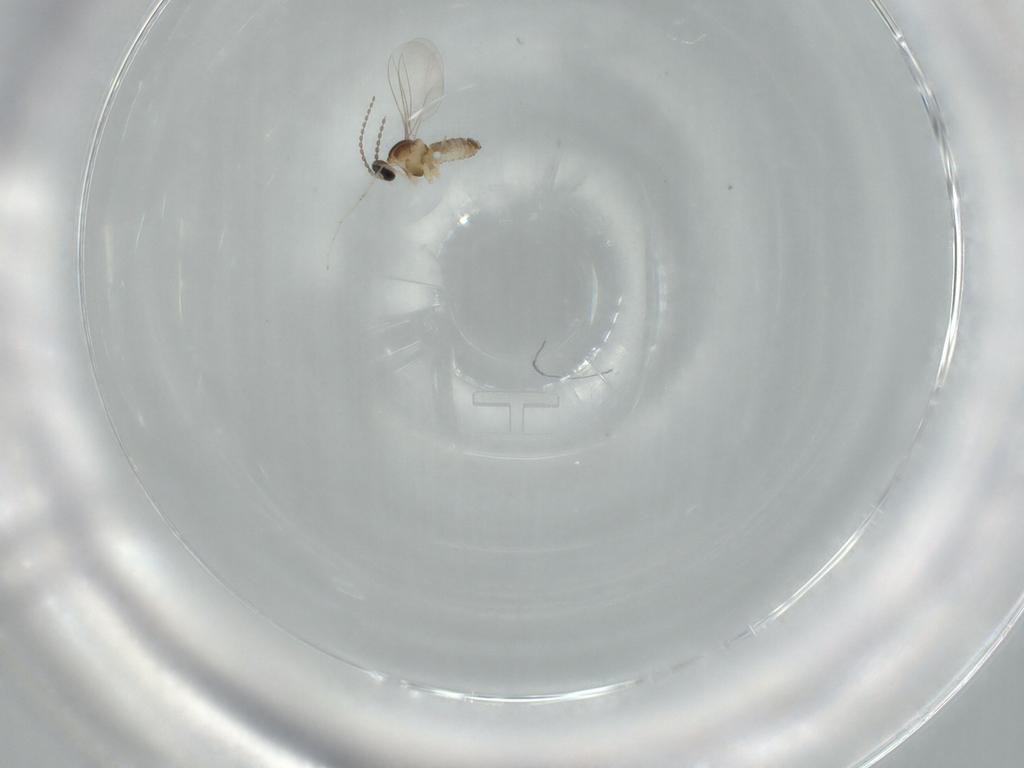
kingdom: Animalia
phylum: Arthropoda
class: Insecta
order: Diptera
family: Cecidomyiidae
